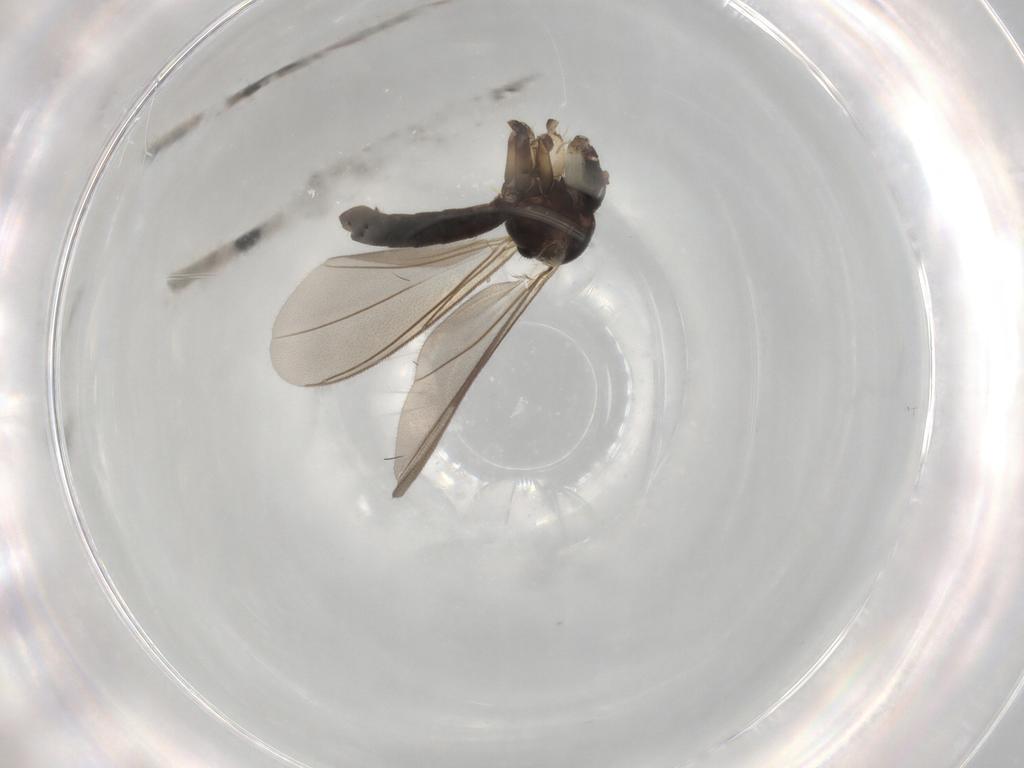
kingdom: Animalia
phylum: Arthropoda
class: Insecta
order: Diptera
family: Mycetophilidae
